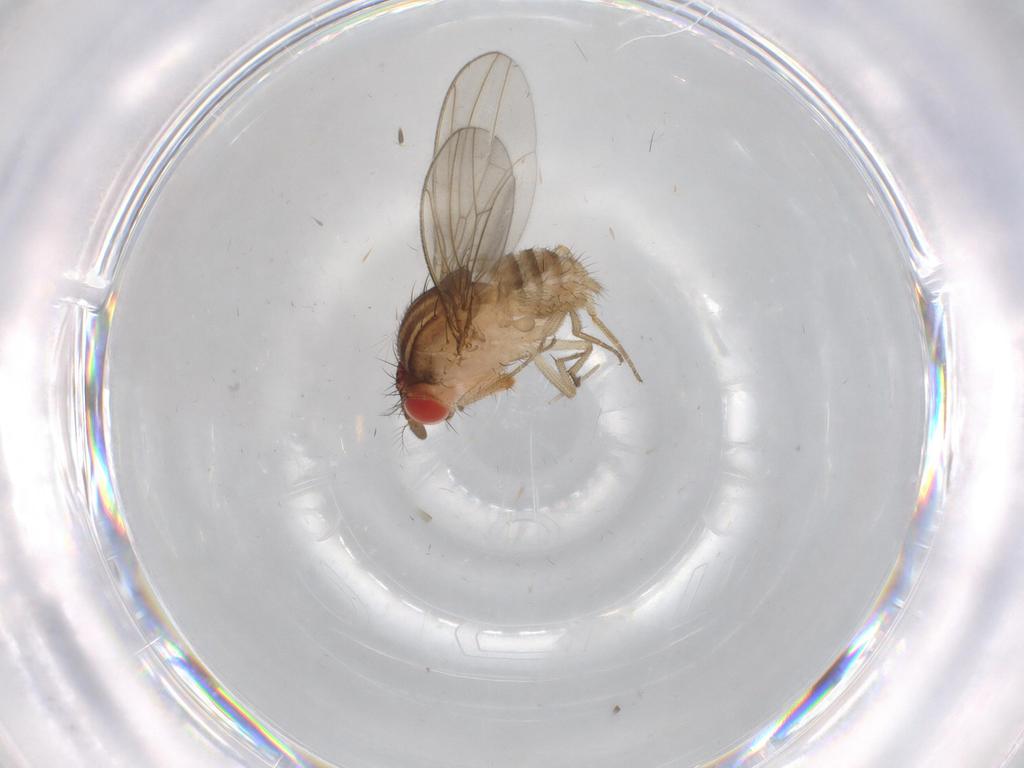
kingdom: Animalia
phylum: Arthropoda
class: Insecta
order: Diptera
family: Drosophilidae
